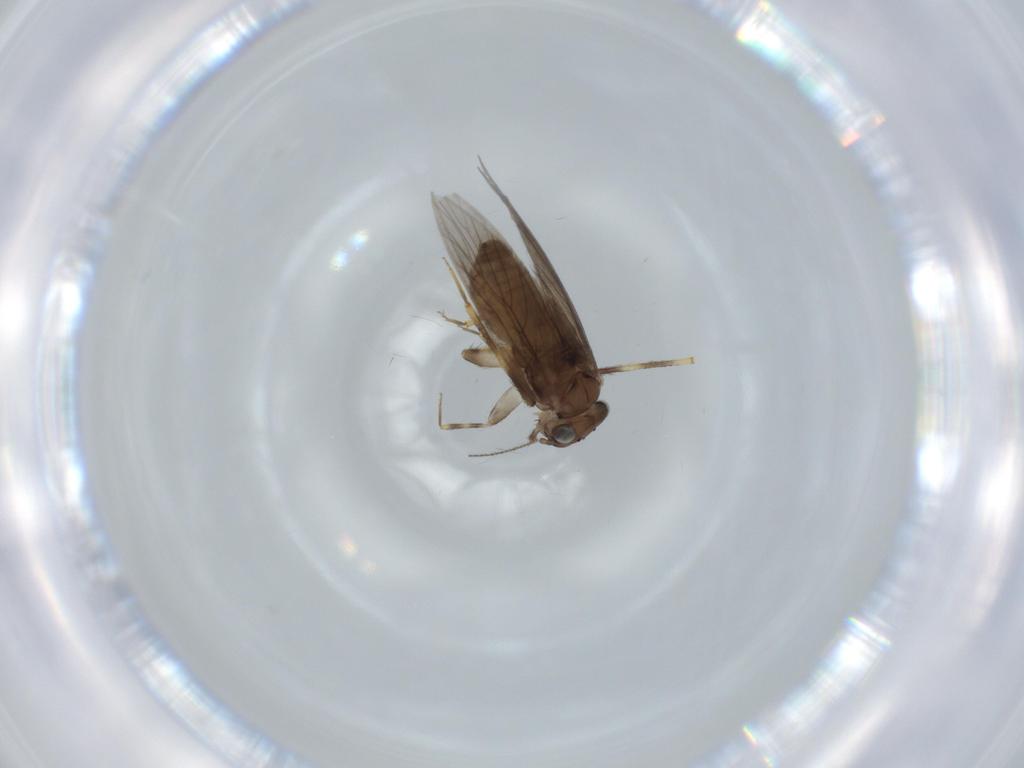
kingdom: Animalia
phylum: Arthropoda
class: Insecta
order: Psocodea
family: Lepidopsocidae
